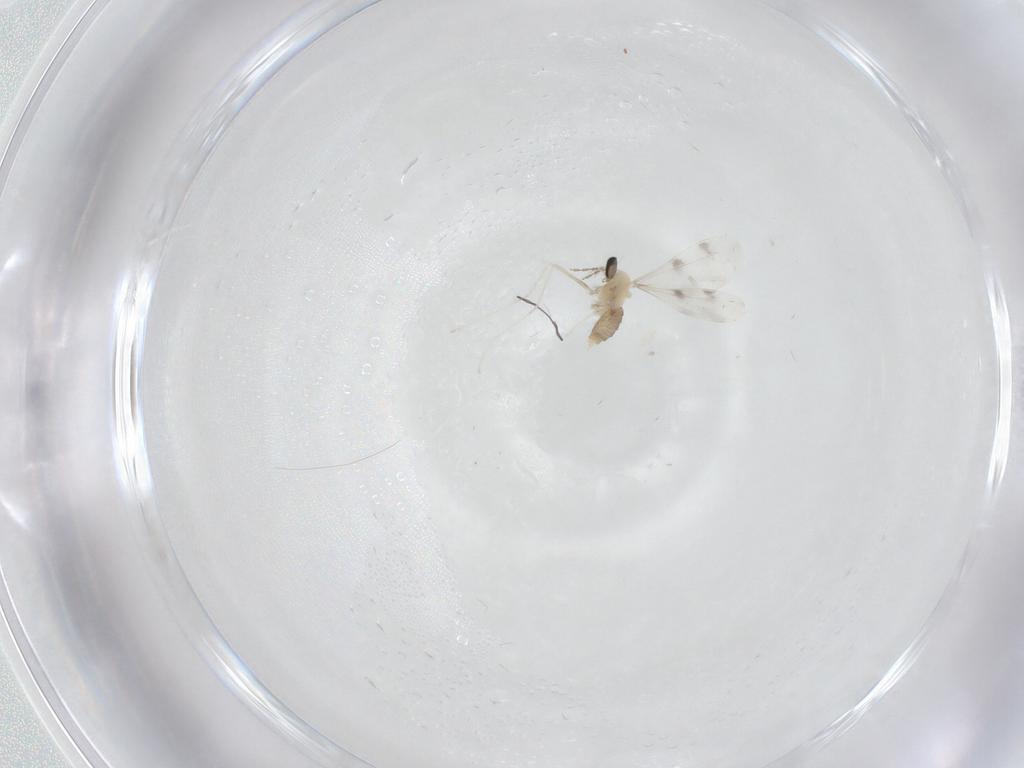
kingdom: Animalia
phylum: Arthropoda
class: Insecta
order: Diptera
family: Cecidomyiidae
